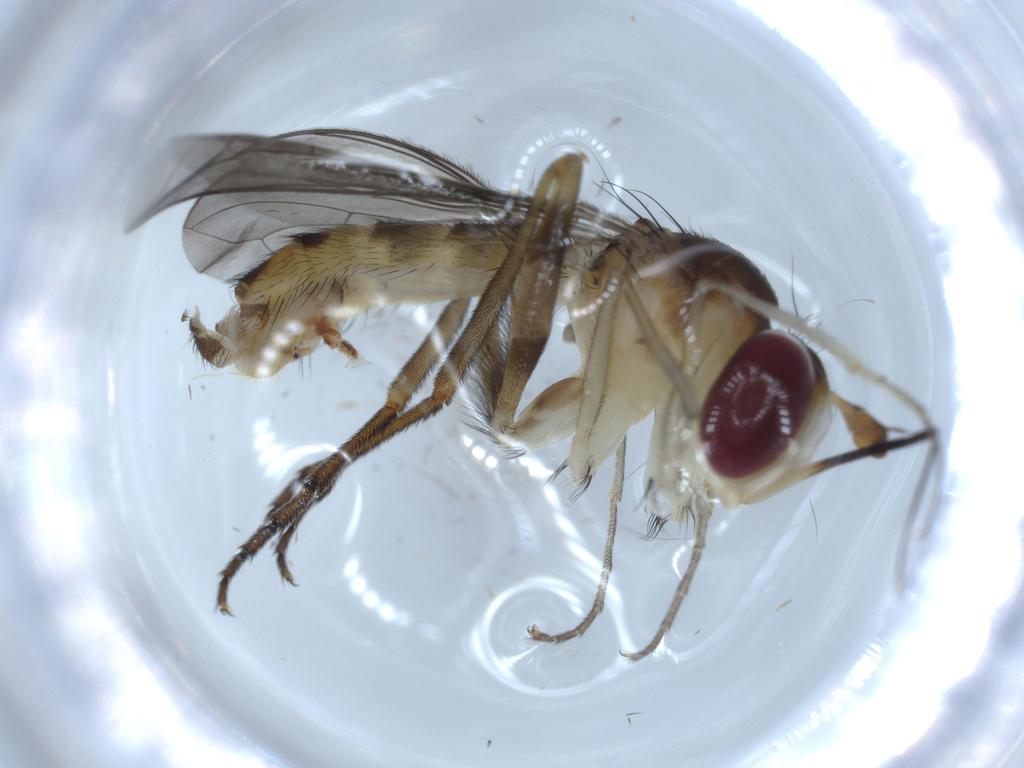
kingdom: Animalia
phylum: Arthropoda
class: Insecta
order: Diptera
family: Conopidae
